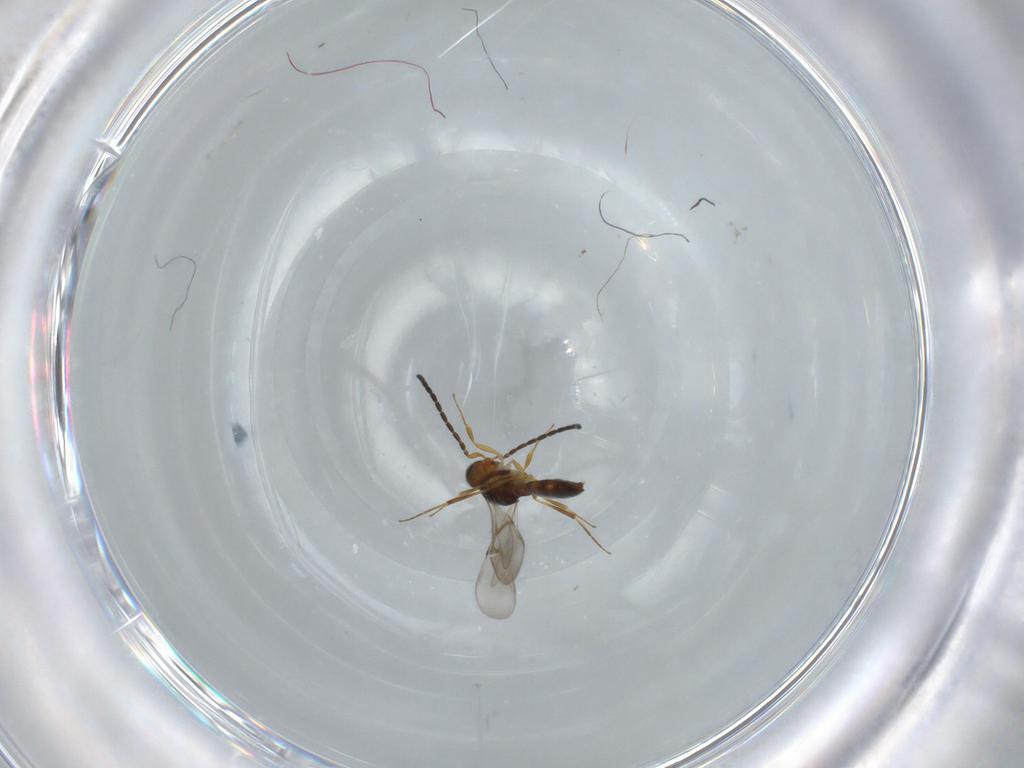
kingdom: Animalia
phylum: Arthropoda
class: Insecta
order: Hymenoptera
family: Scelionidae
